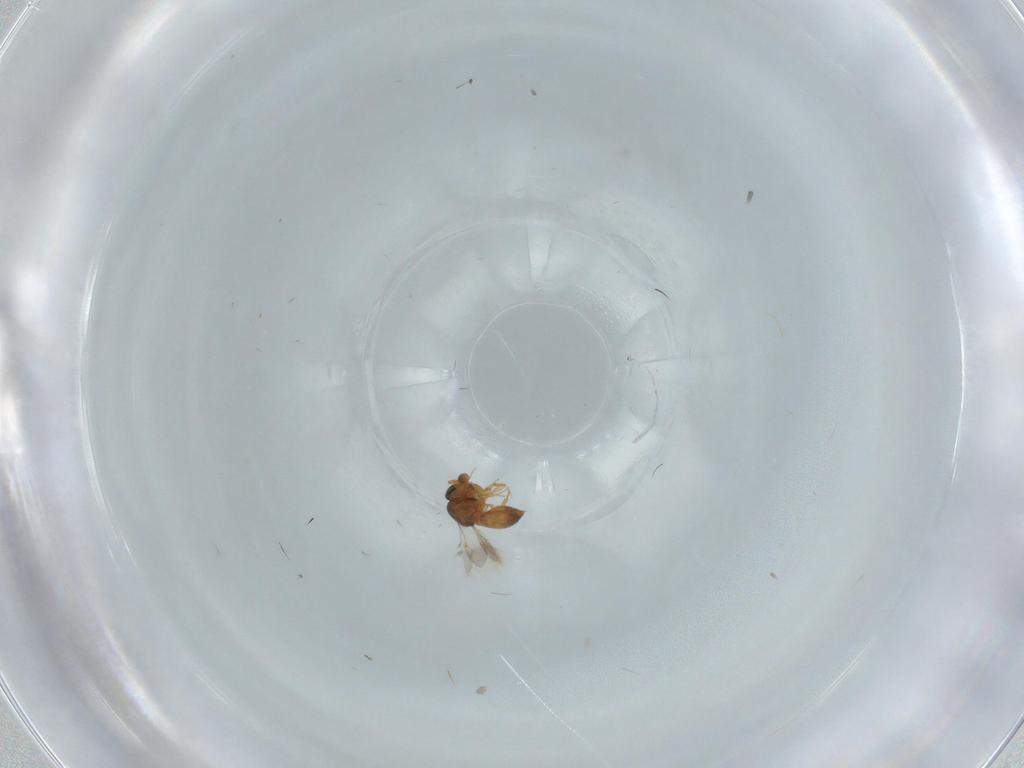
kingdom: Animalia
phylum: Arthropoda
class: Insecta
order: Hymenoptera
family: Scelionidae
